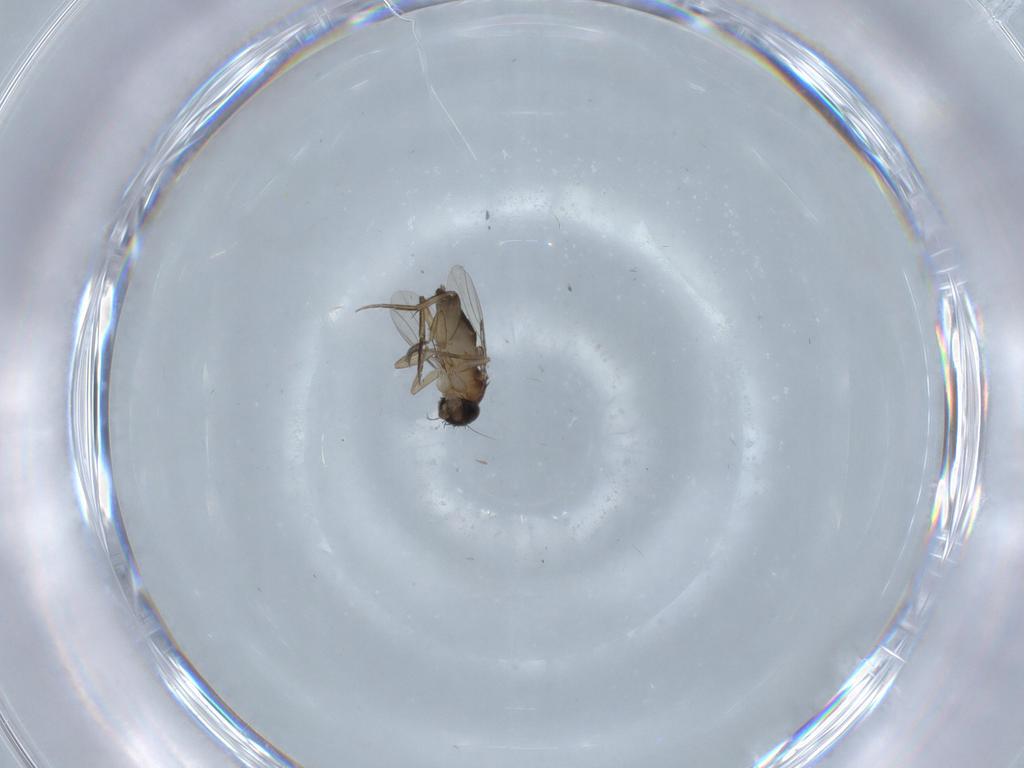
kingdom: Animalia
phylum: Arthropoda
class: Insecta
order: Diptera
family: Phoridae
